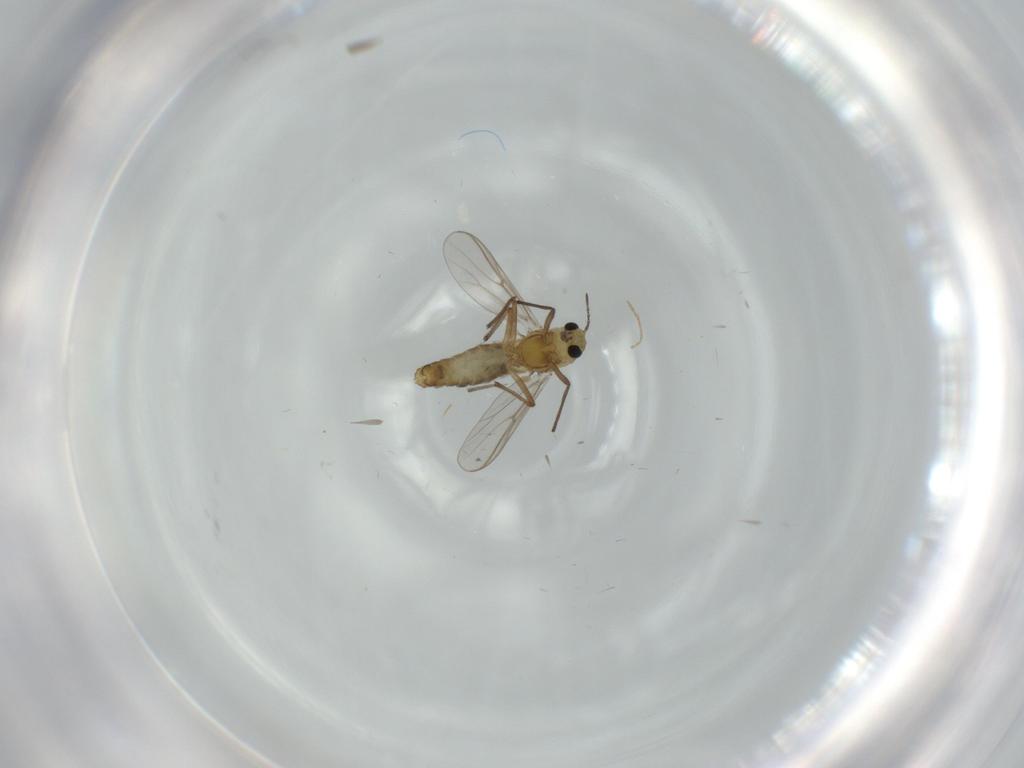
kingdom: Animalia
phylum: Arthropoda
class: Insecta
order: Diptera
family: Chironomidae
